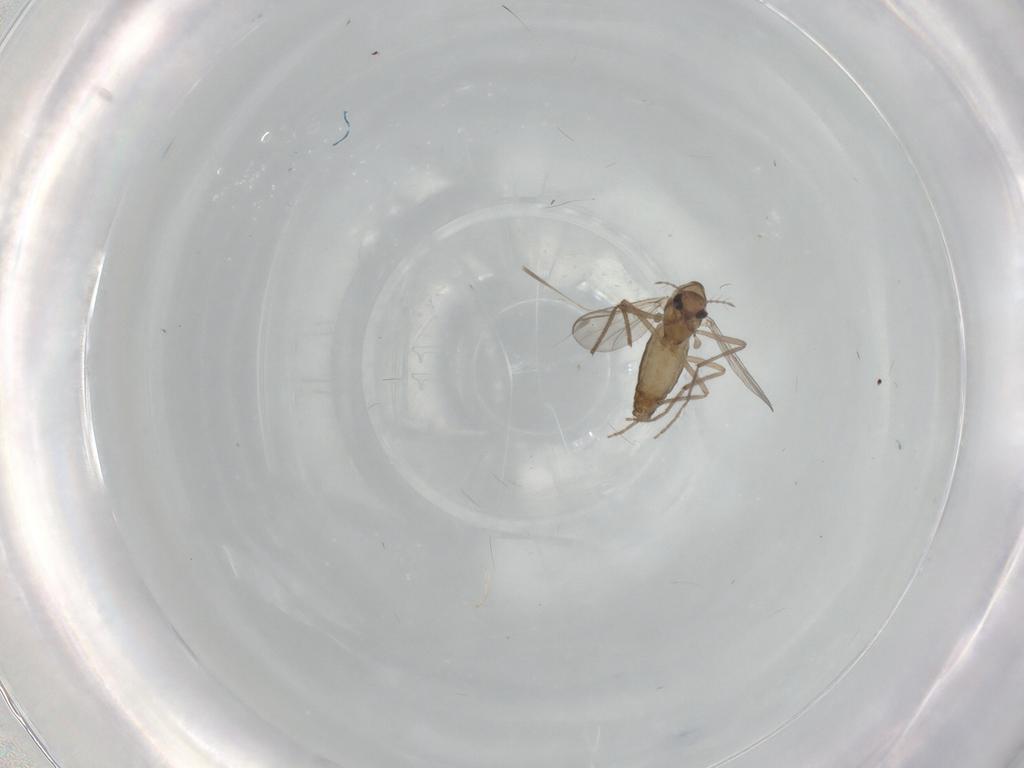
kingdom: Animalia
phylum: Arthropoda
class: Insecta
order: Diptera
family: Chironomidae
